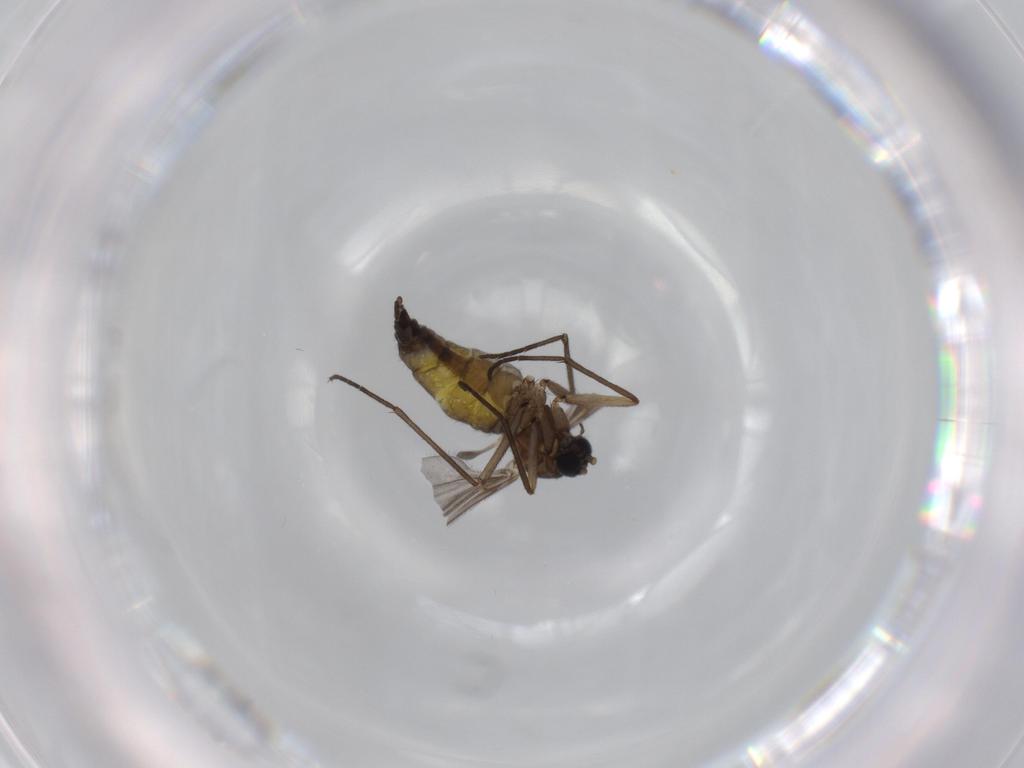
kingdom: Animalia
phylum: Arthropoda
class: Insecta
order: Diptera
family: Sciaridae
